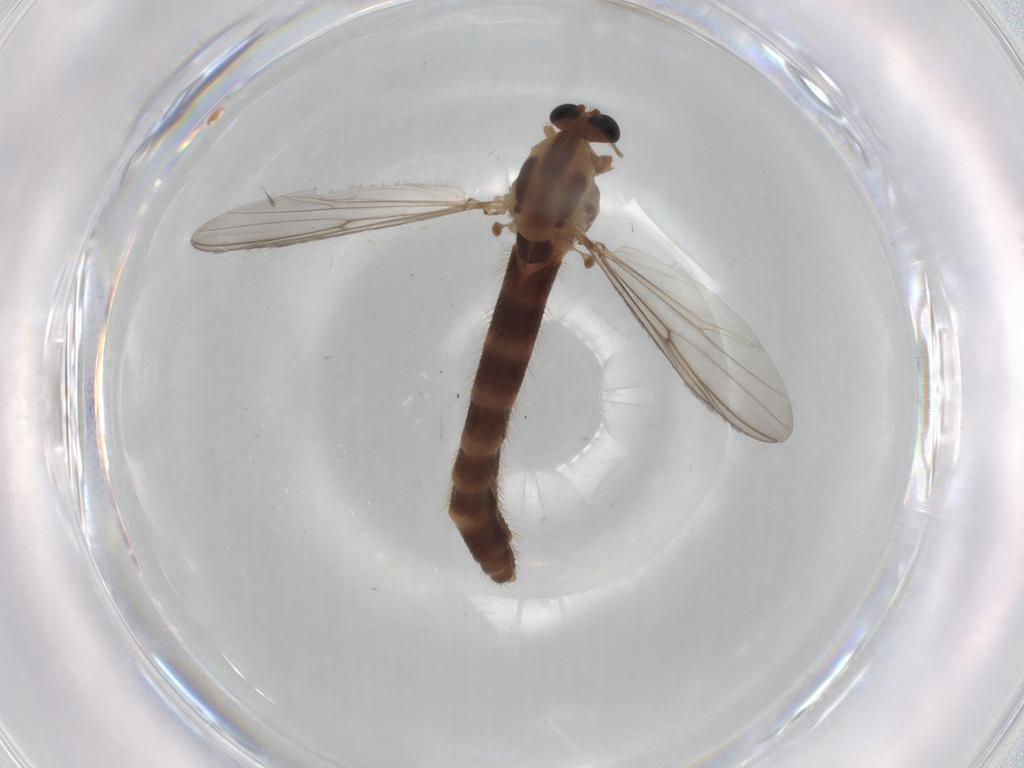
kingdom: Animalia
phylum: Arthropoda
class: Insecta
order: Diptera
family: Chironomidae
